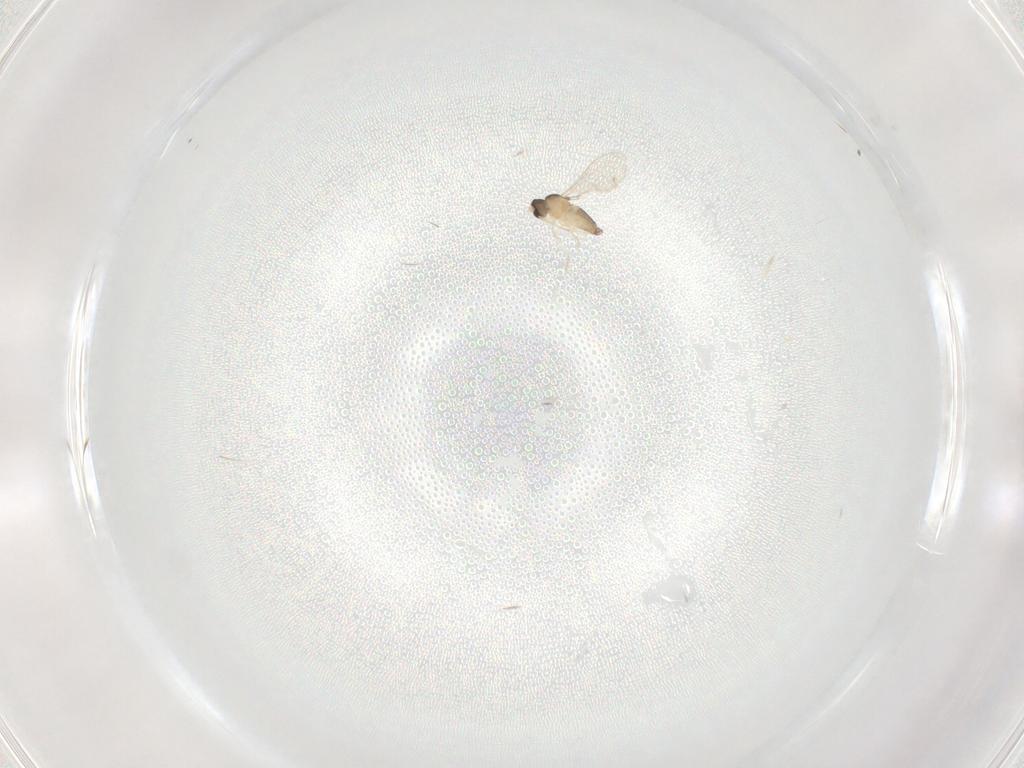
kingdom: Animalia
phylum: Arthropoda
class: Insecta
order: Diptera
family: Cecidomyiidae
